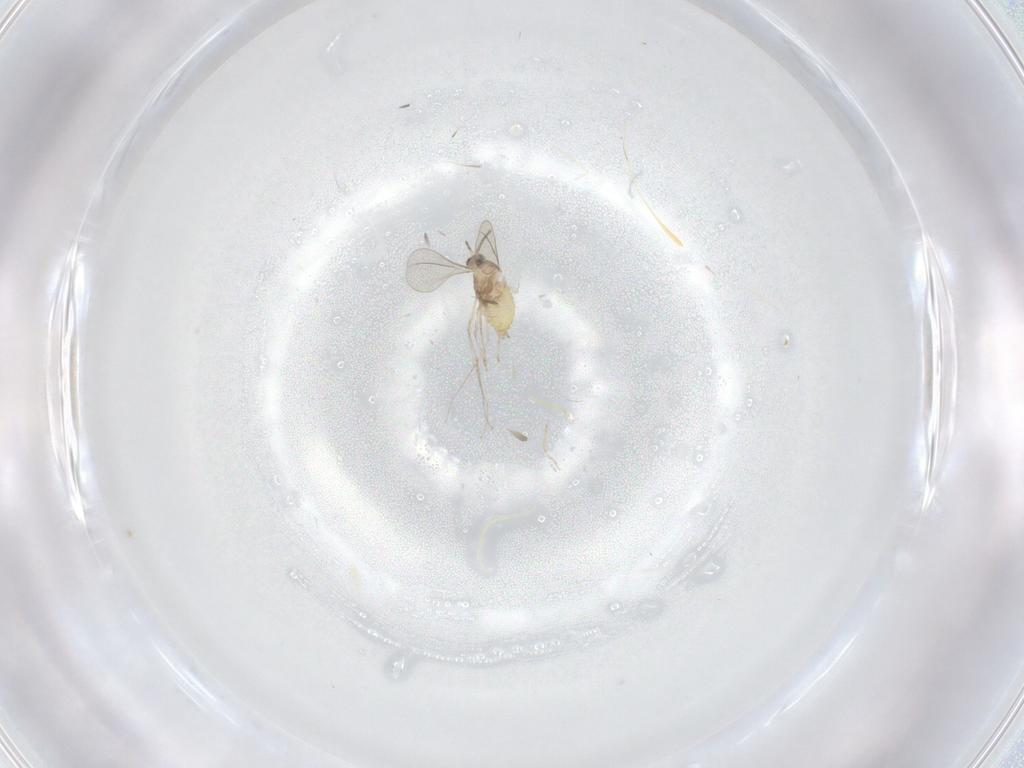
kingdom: Animalia
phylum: Arthropoda
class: Insecta
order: Diptera
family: Cecidomyiidae
